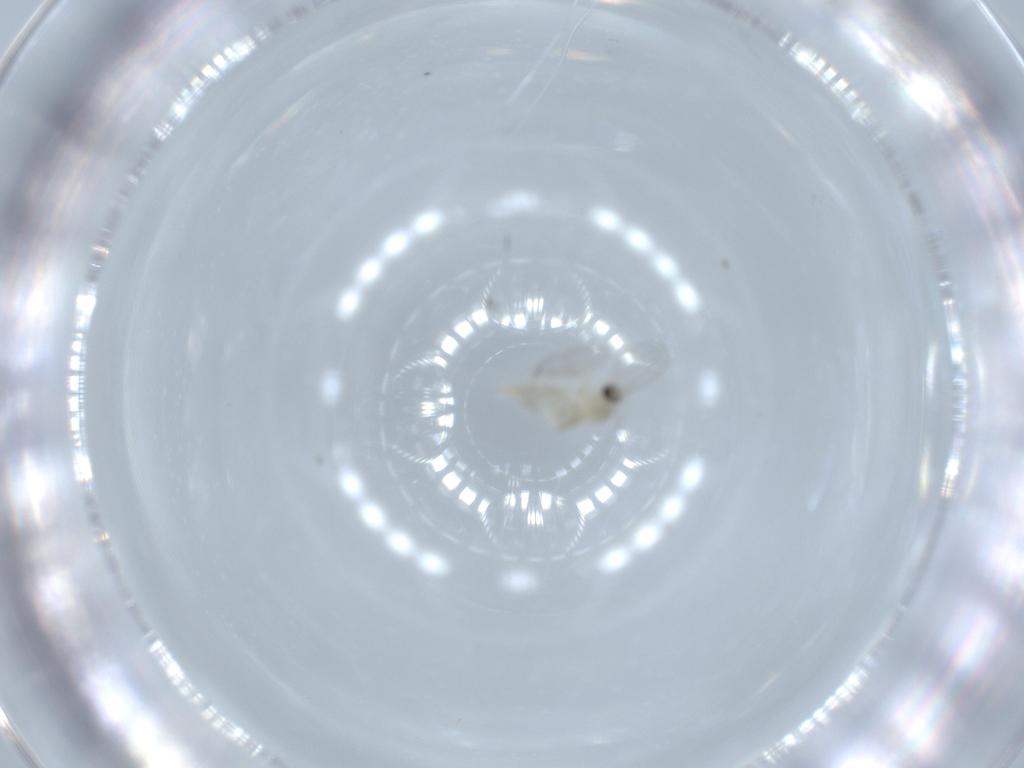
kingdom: Animalia
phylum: Arthropoda
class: Insecta
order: Diptera
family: Cecidomyiidae
